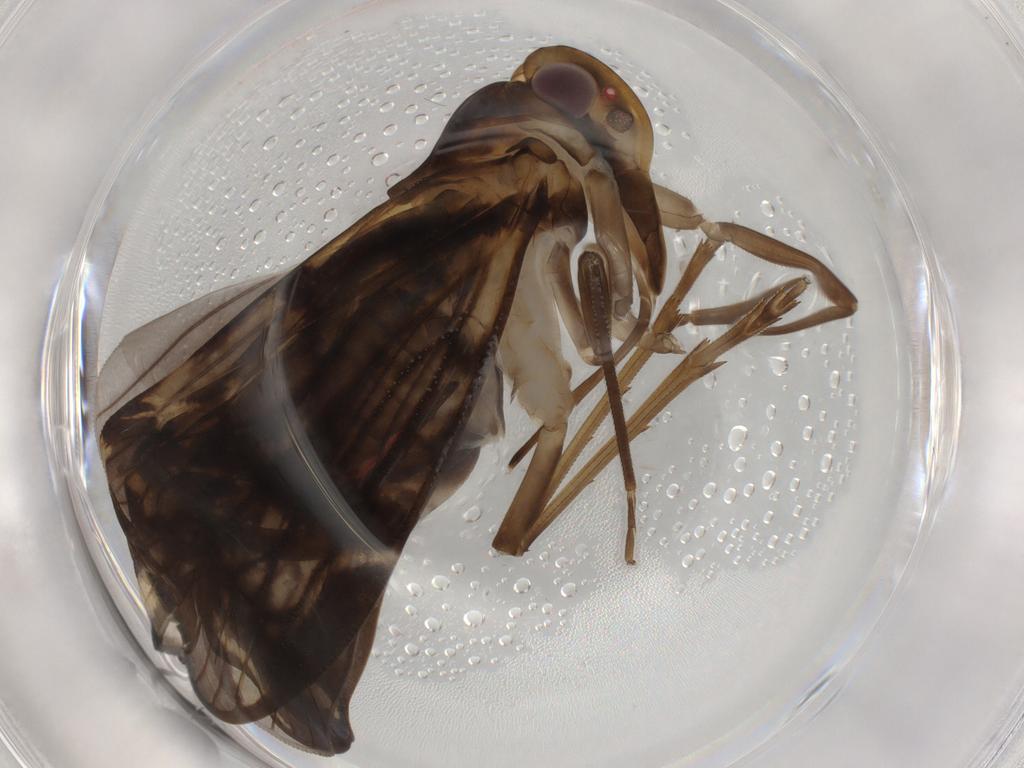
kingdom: Animalia
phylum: Arthropoda
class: Insecta
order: Hemiptera
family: Cixiidae
